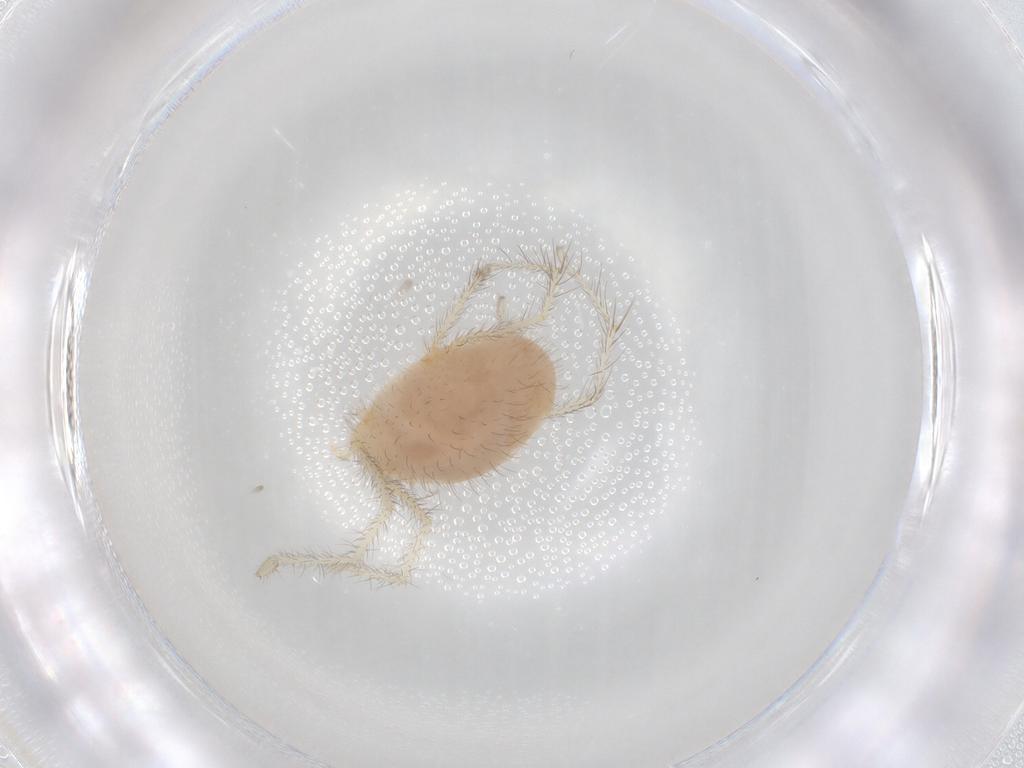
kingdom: Animalia
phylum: Arthropoda
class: Arachnida
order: Trombidiformes
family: Erythraeidae
